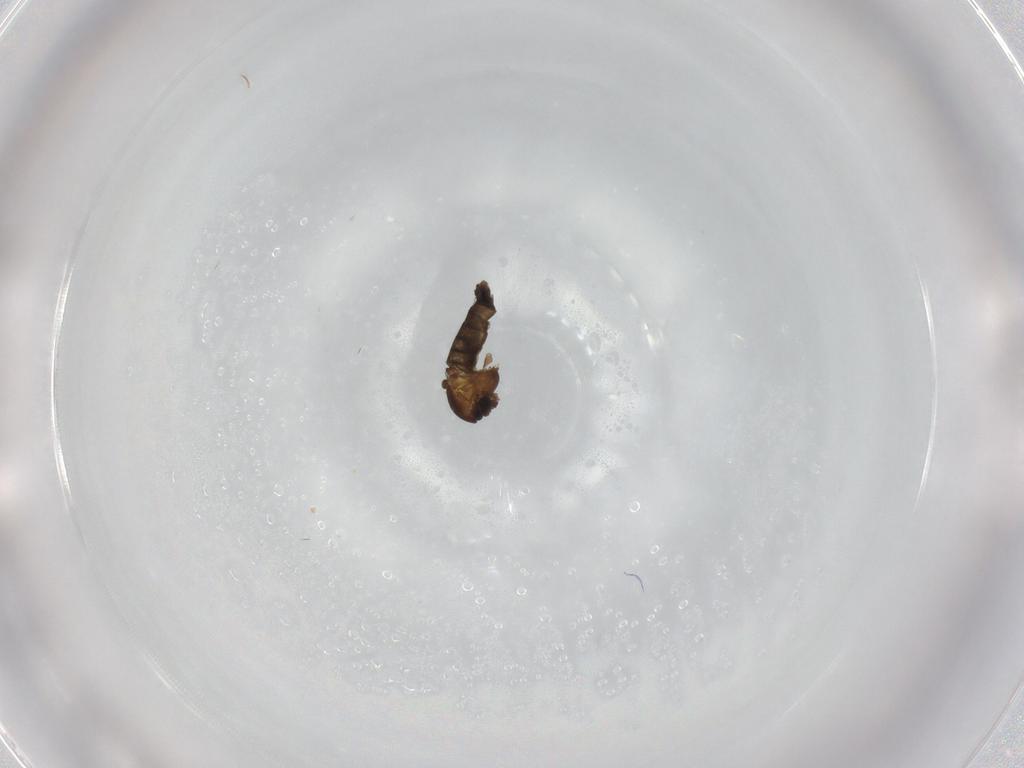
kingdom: Animalia
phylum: Arthropoda
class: Insecta
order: Diptera
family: Chironomidae
